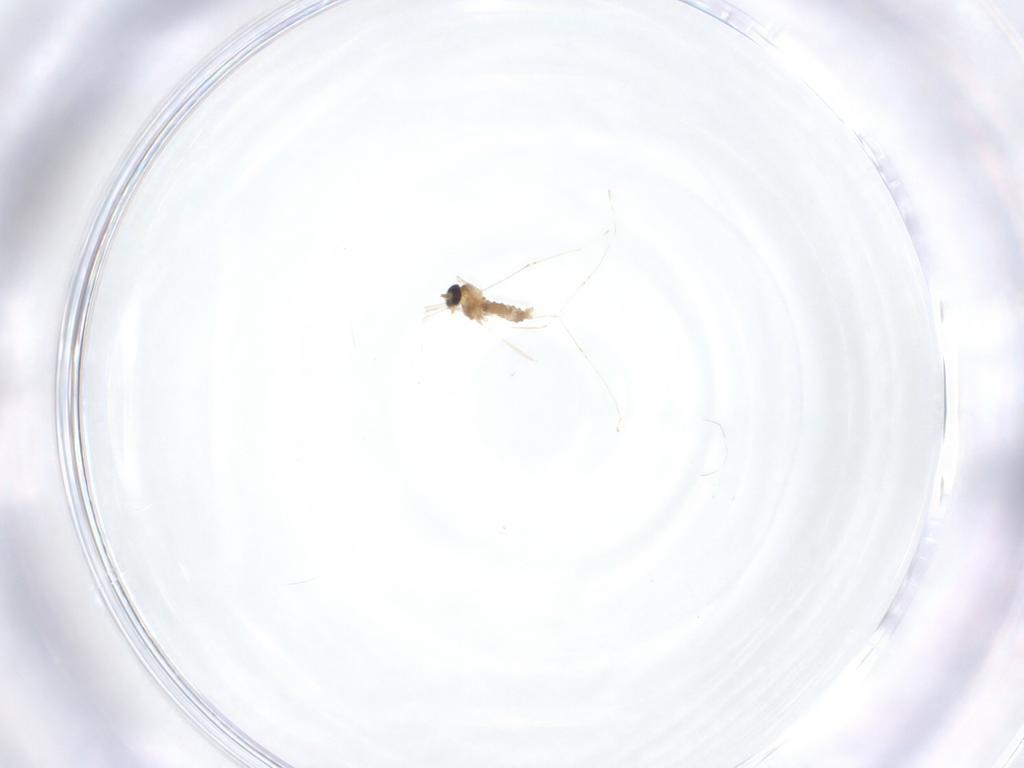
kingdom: Animalia
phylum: Arthropoda
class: Insecta
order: Diptera
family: Cecidomyiidae
